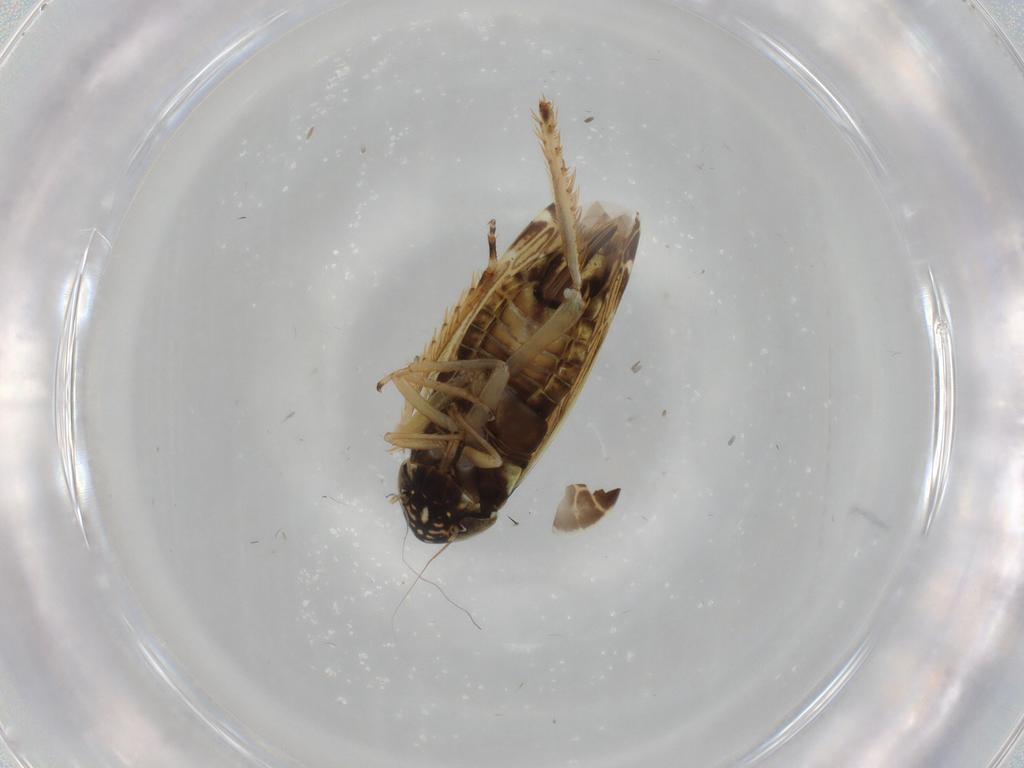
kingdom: Animalia
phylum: Arthropoda
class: Insecta
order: Hemiptera
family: Cicadellidae
